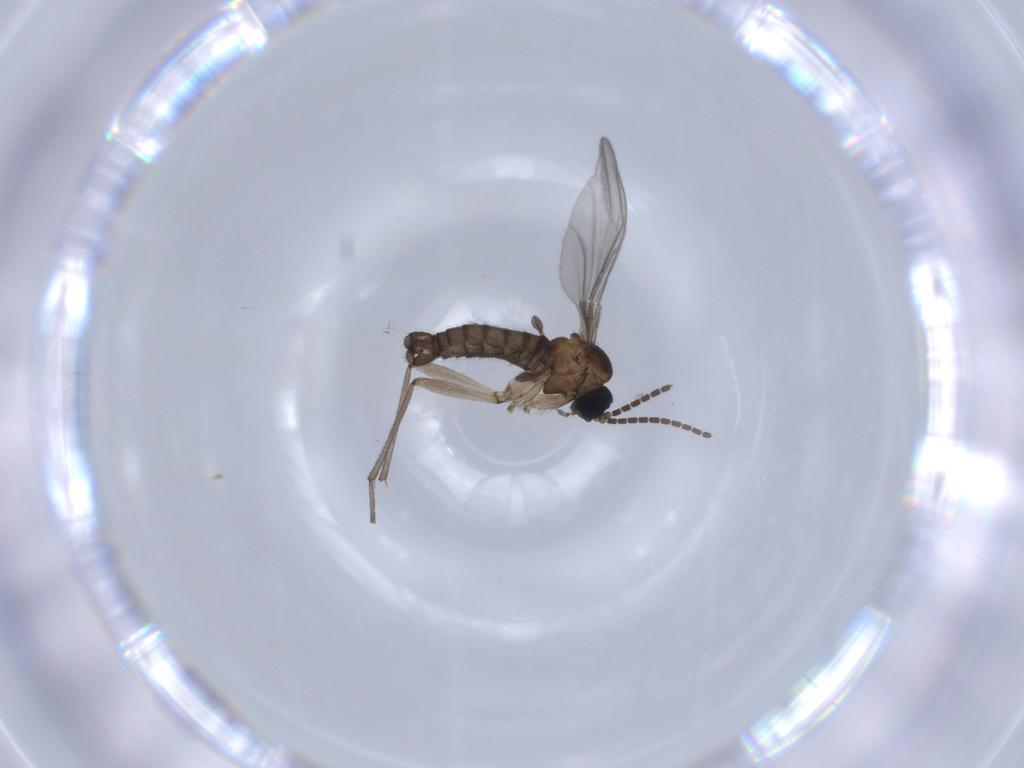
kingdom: Animalia
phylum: Arthropoda
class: Insecta
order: Diptera
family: Sciaridae
